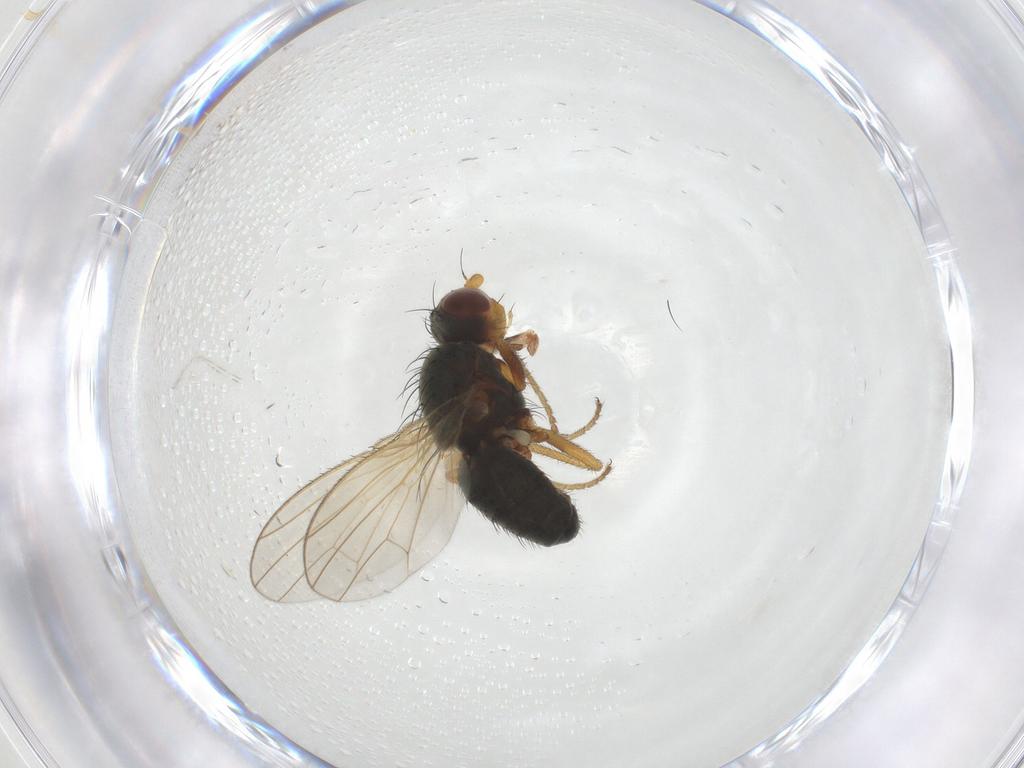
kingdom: Animalia
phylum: Arthropoda
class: Insecta
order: Diptera
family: Heleomyzidae
